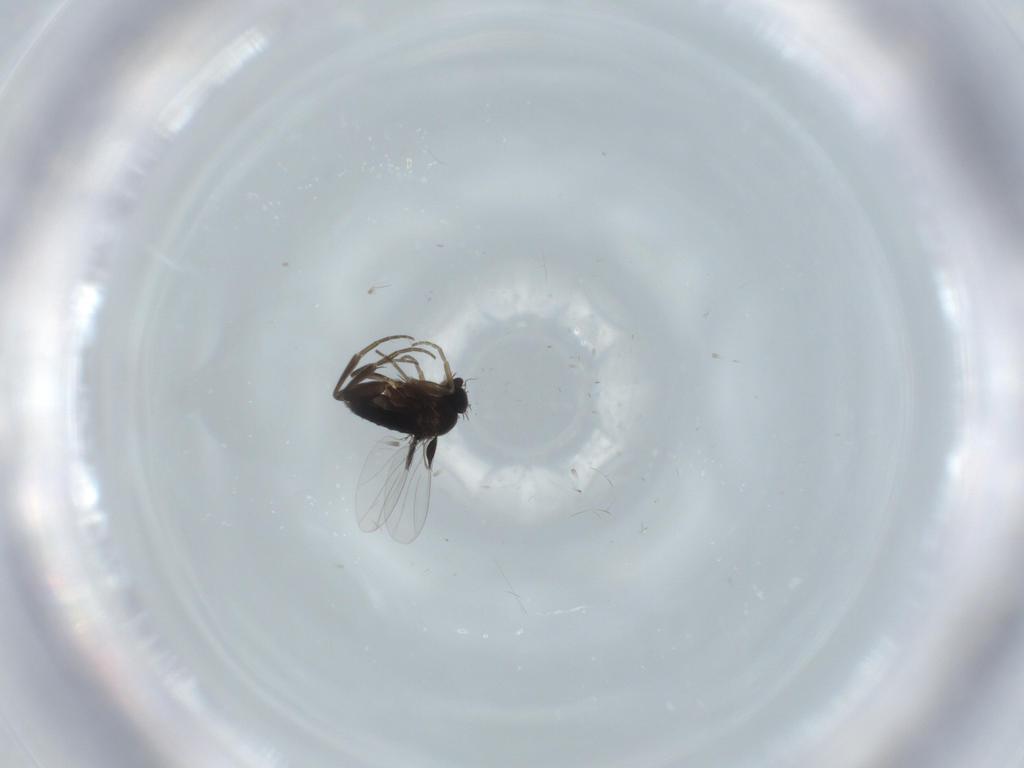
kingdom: Animalia
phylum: Arthropoda
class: Insecta
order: Diptera
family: Phoridae
